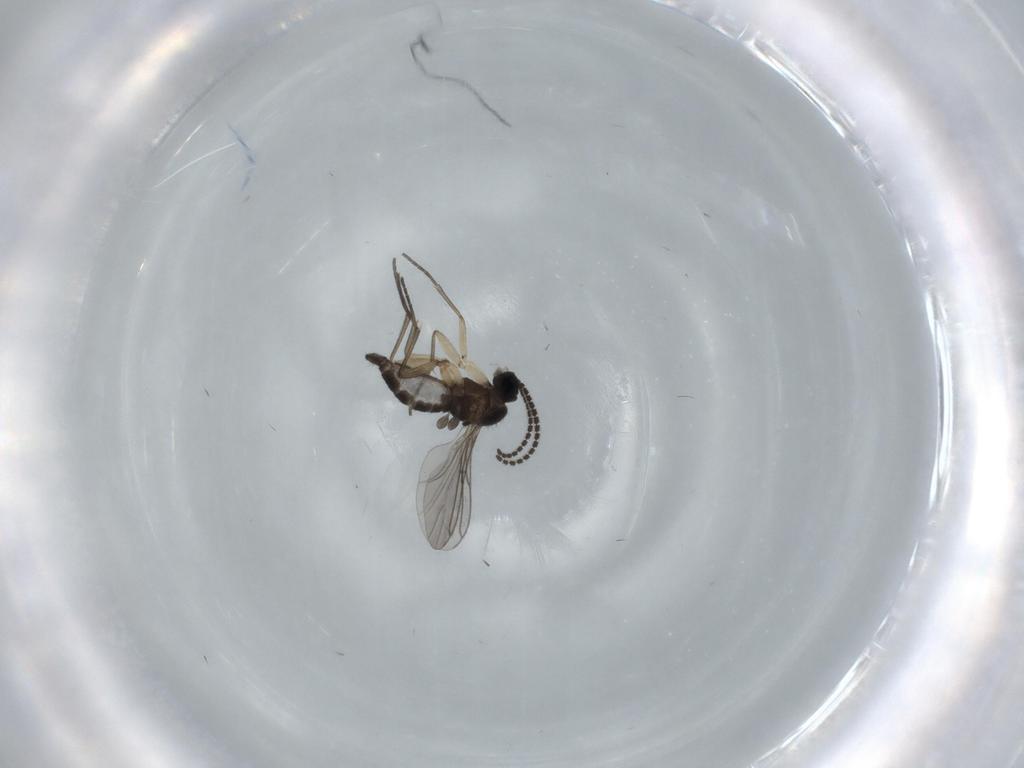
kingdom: Animalia
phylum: Arthropoda
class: Insecta
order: Diptera
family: Sciaridae
